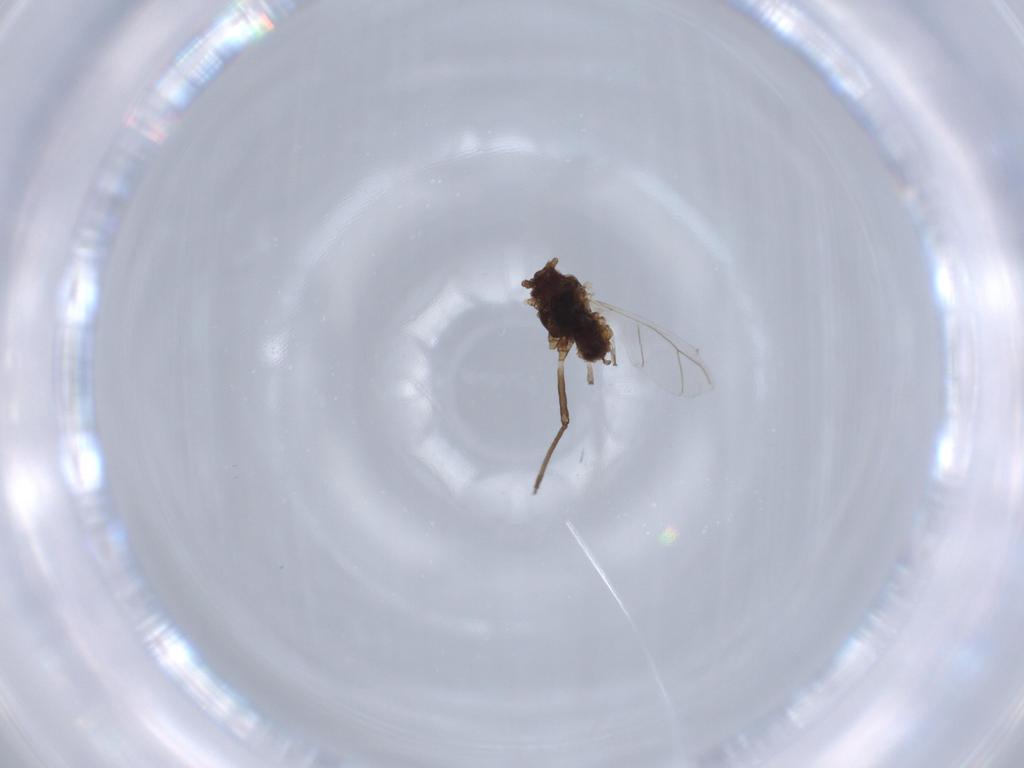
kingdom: Animalia
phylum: Arthropoda
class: Insecta
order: Hemiptera
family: Aphididae
